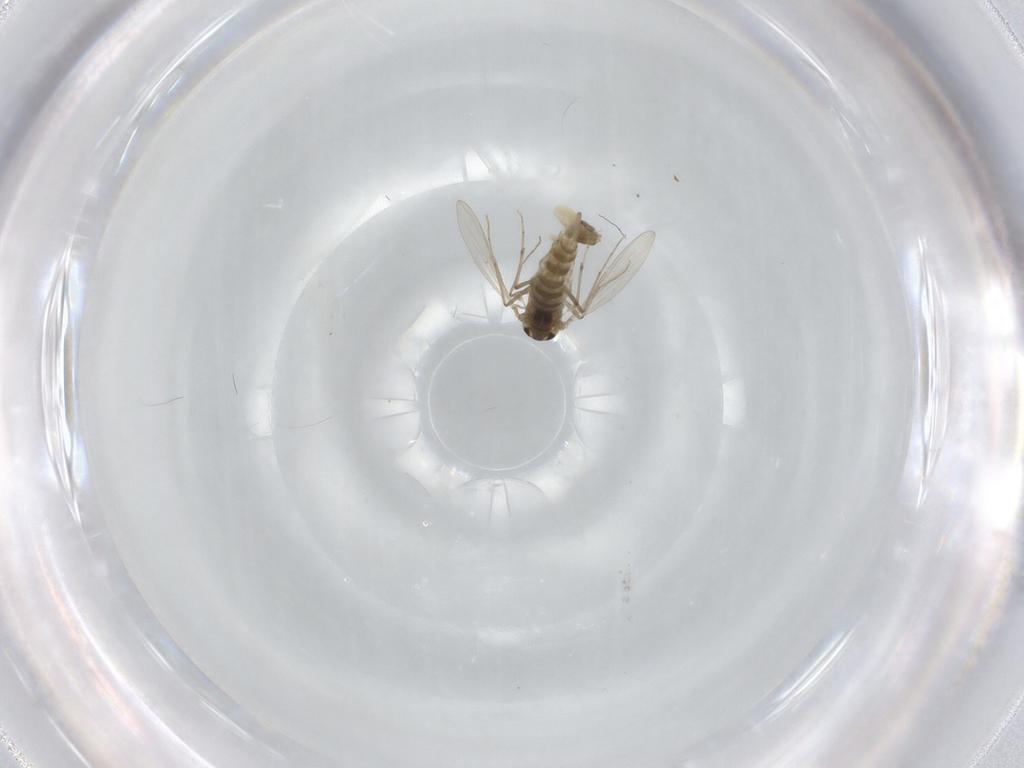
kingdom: Animalia
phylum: Arthropoda
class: Insecta
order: Diptera
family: Chironomidae
